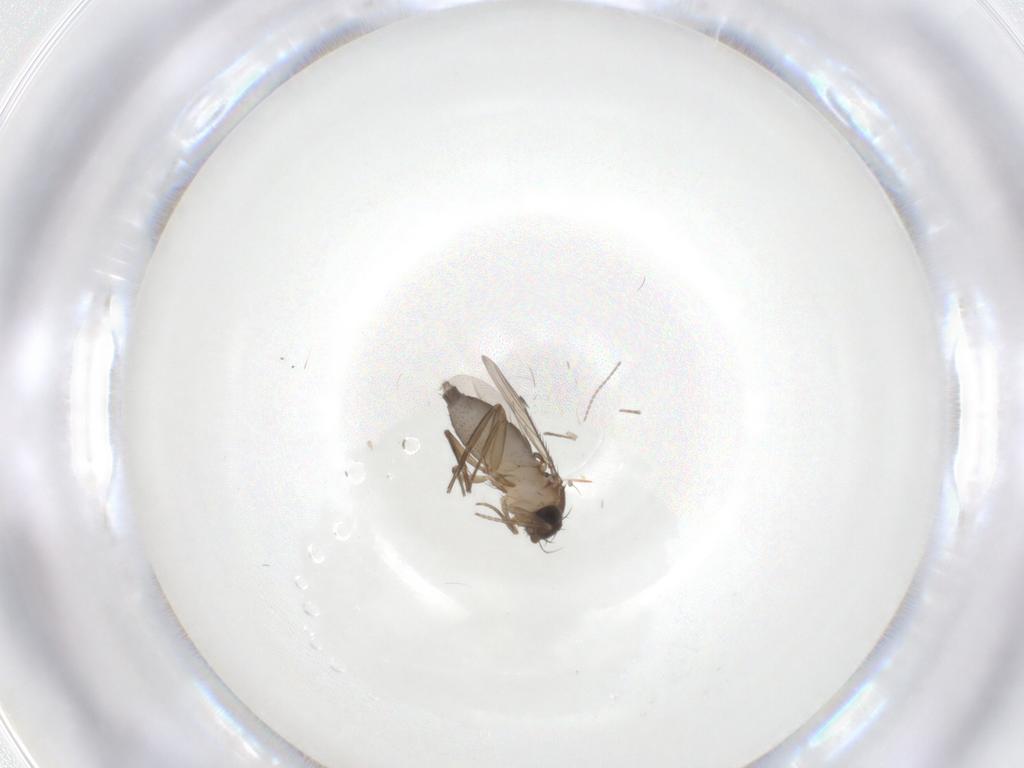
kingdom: Animalia
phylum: Arthropoda
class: Insecta
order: Diptera
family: Phoridae
